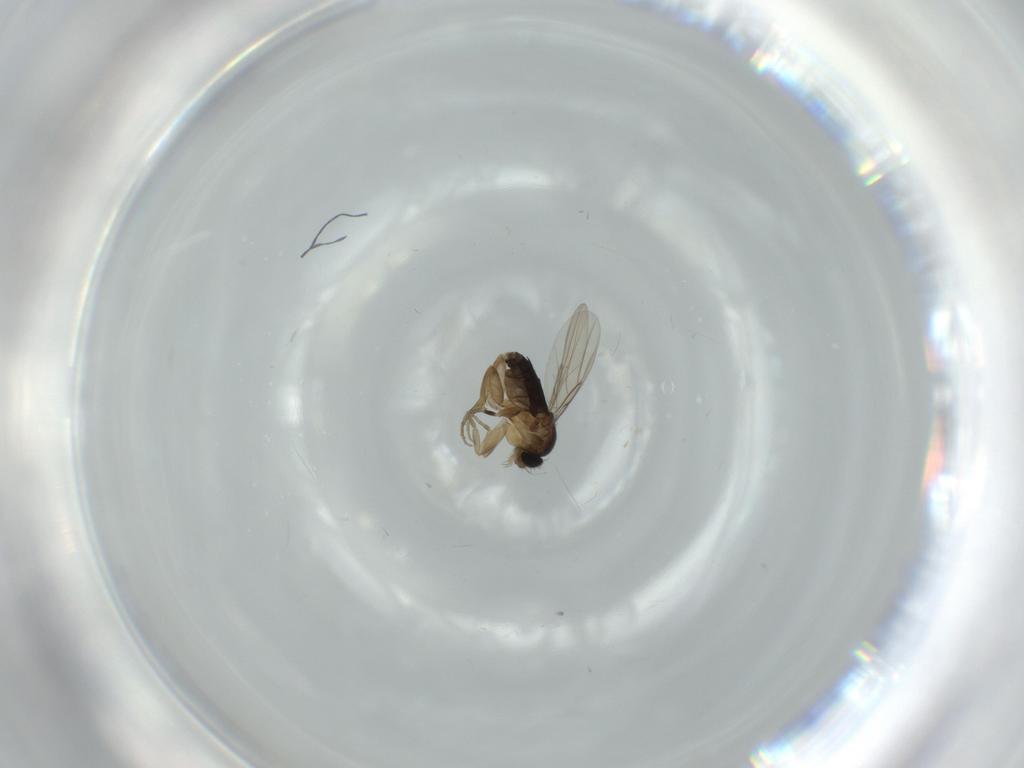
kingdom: Animalia
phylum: Arthropoda
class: Insecta
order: Diptera
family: Phoridae
